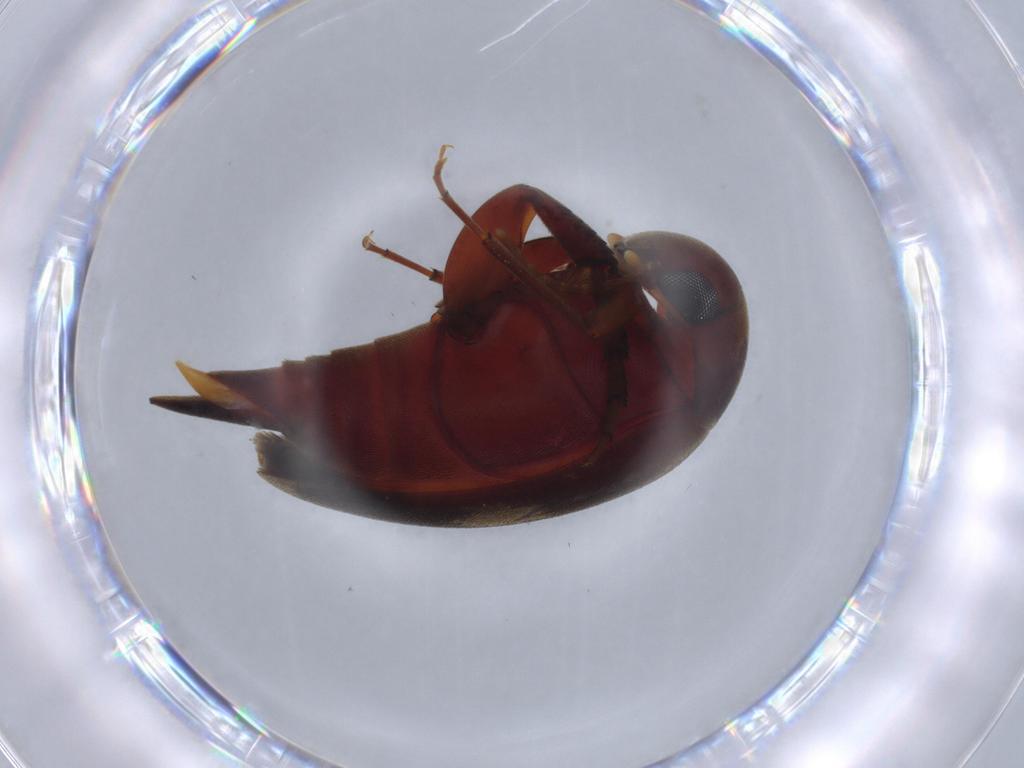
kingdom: Animalia
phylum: Arthropoda
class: Insecta
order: Coleoptera
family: Mordellidae
